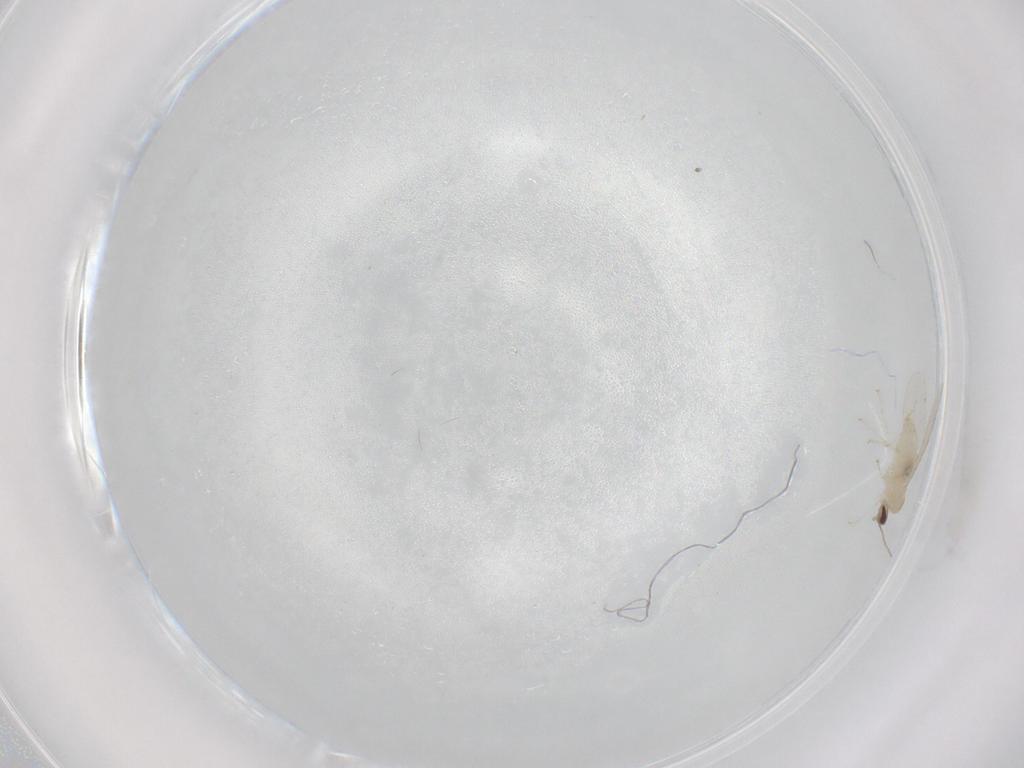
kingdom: Animalia
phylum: Arthropoda
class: Insecta
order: Diptera
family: Cecidomyiidae
